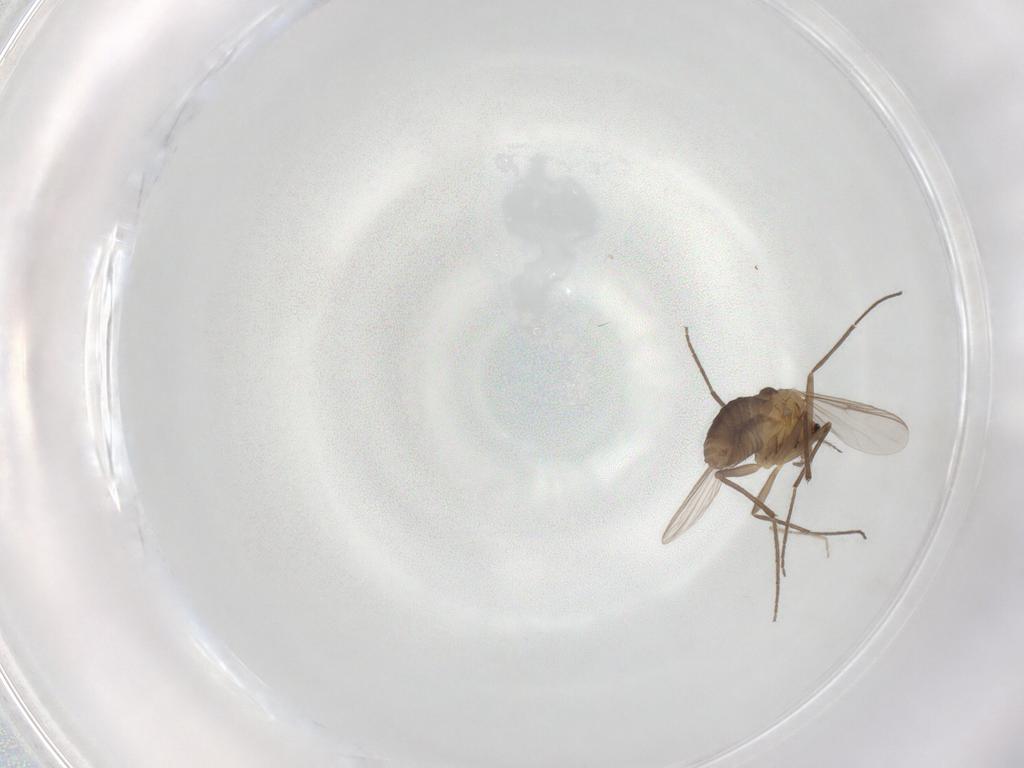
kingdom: Animalia
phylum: Arthropoda
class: Insecta
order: Diptera
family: Chironomidae
